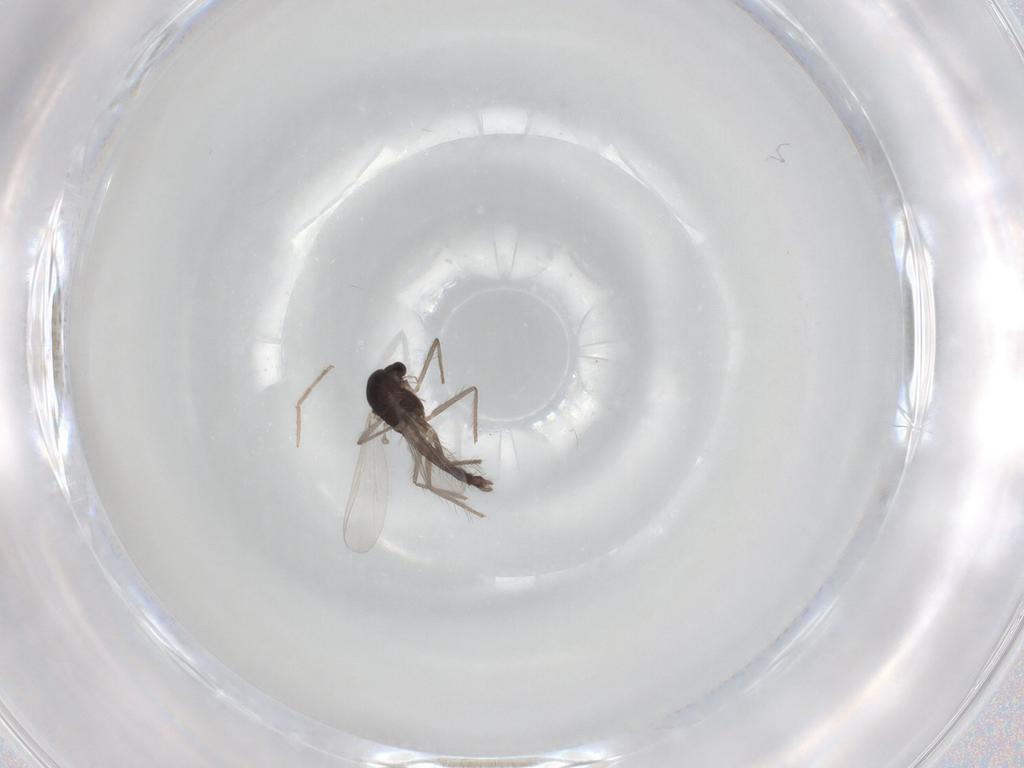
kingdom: Animalia
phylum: Arthropoda
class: Insecta
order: Diptera
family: Chironomidae
